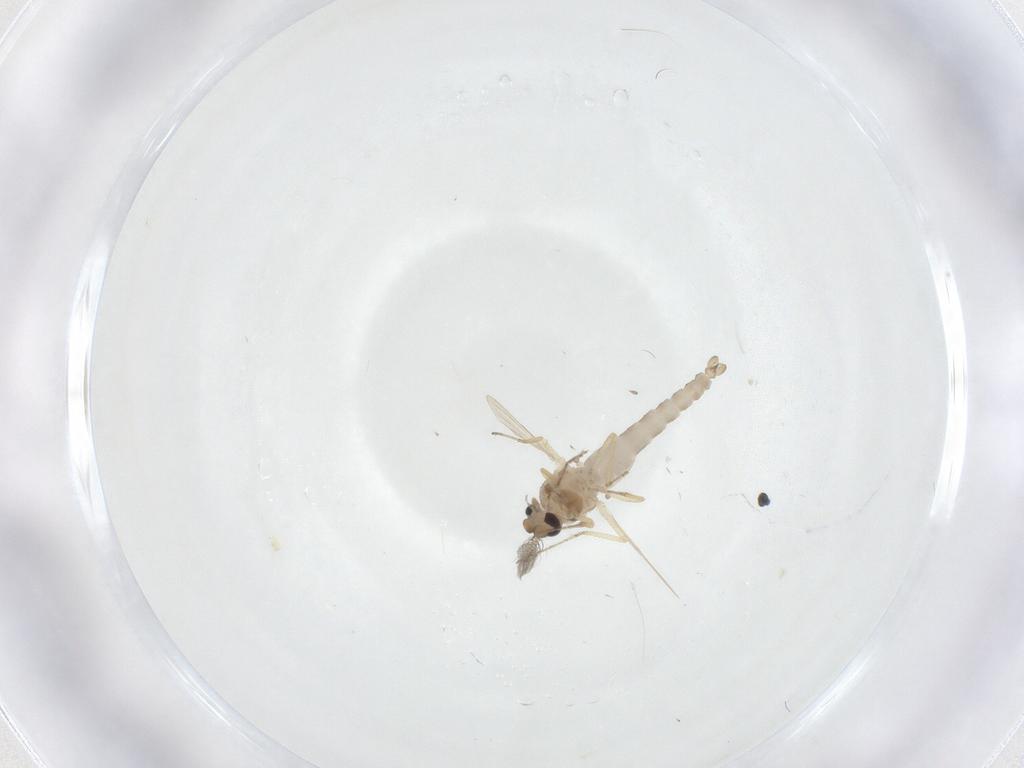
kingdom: Animalia
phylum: Arthropoda
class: Insecta
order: Diptera
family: Ceratopogonidae
